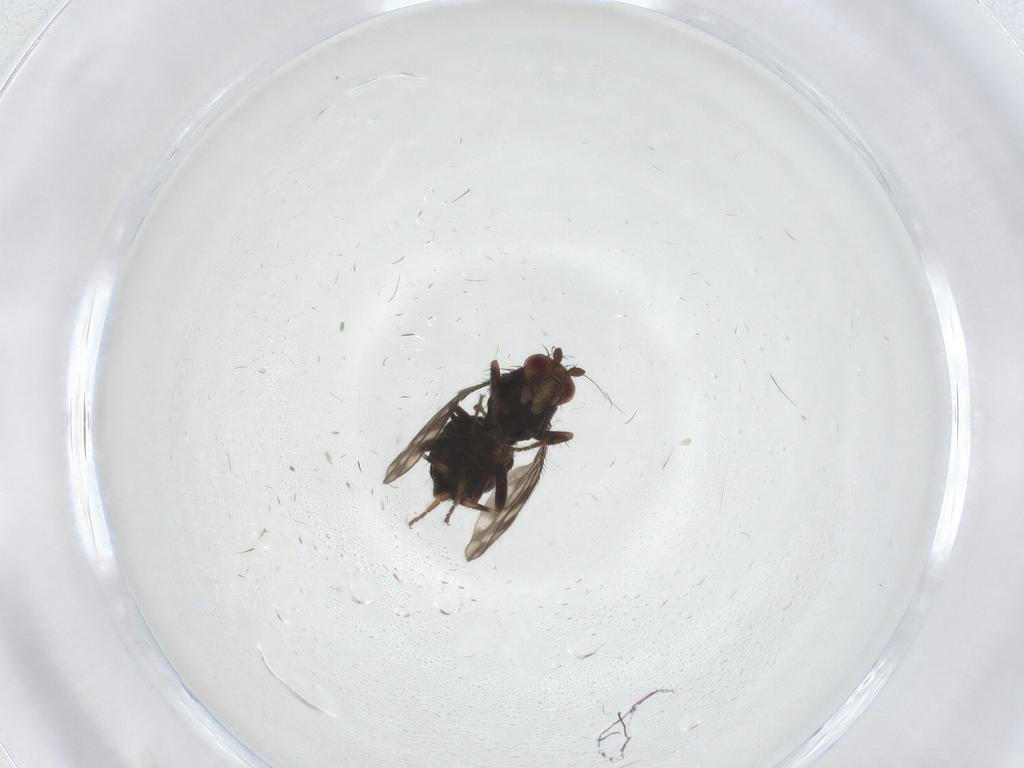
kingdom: Animalia
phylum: Arthropoda
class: Insecta
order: Diptera
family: Sphaeroceridae
